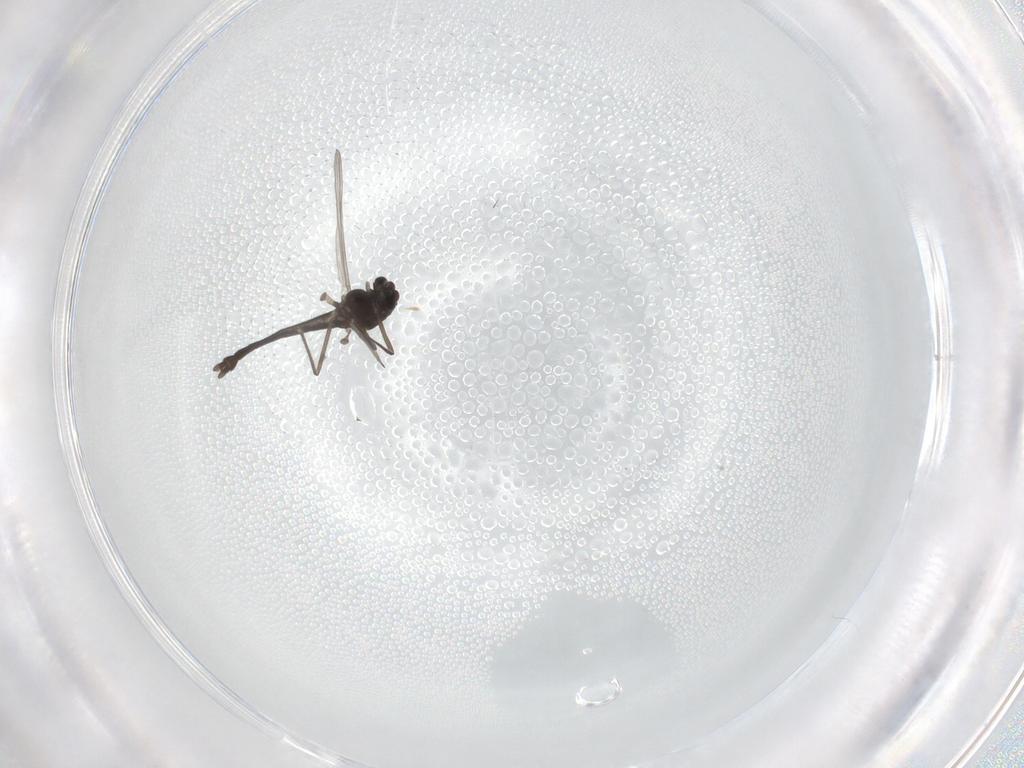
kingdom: Animalia
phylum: Arthropoda
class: Insecta
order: Diptera
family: Chironomidae
